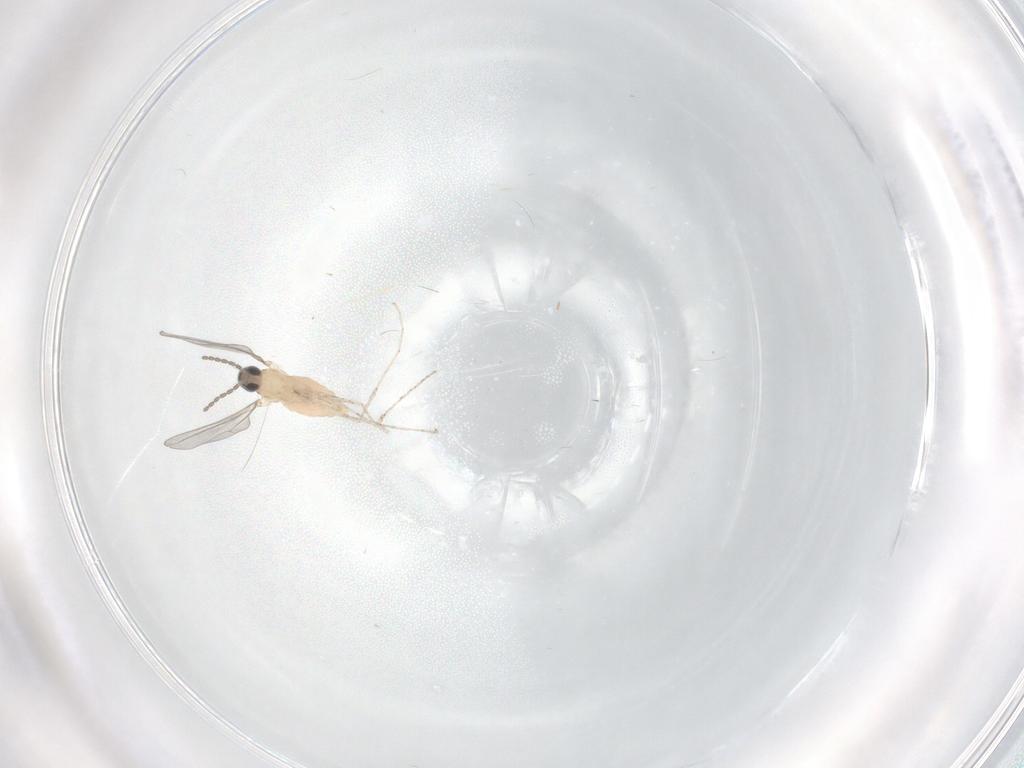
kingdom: Animalia
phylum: Arthropoda
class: Insecta
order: Diptera
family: Cecidomyiidae
